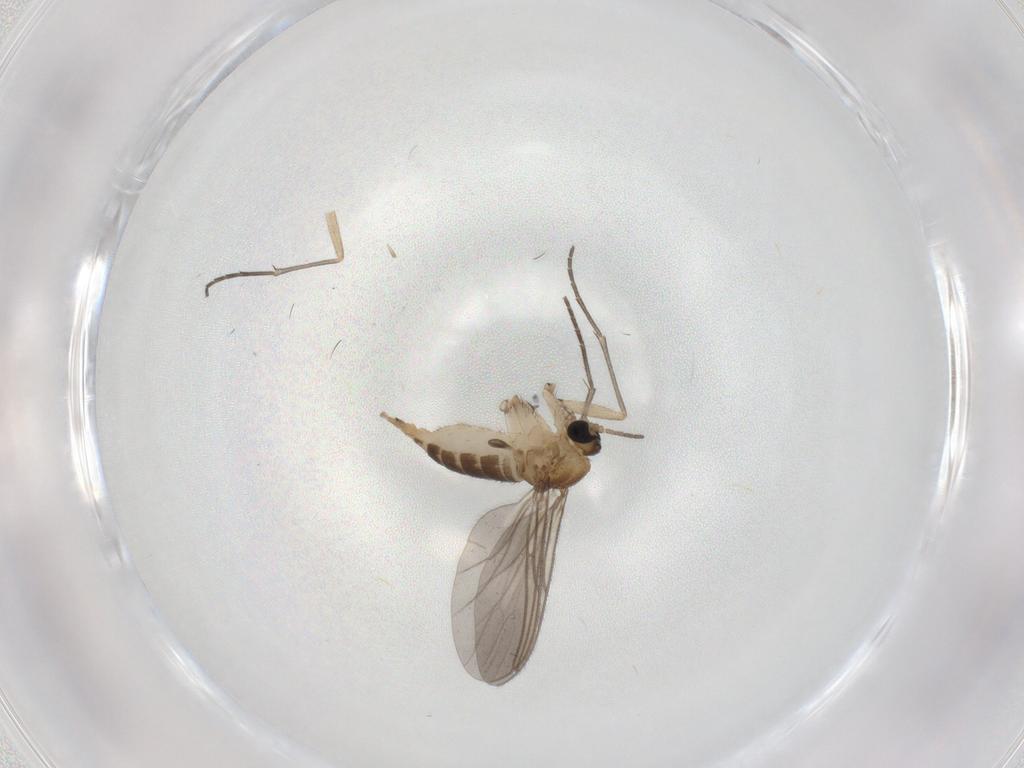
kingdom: Animalia
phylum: Arthropoda
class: Insecta
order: Diptera
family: Sciaridae
